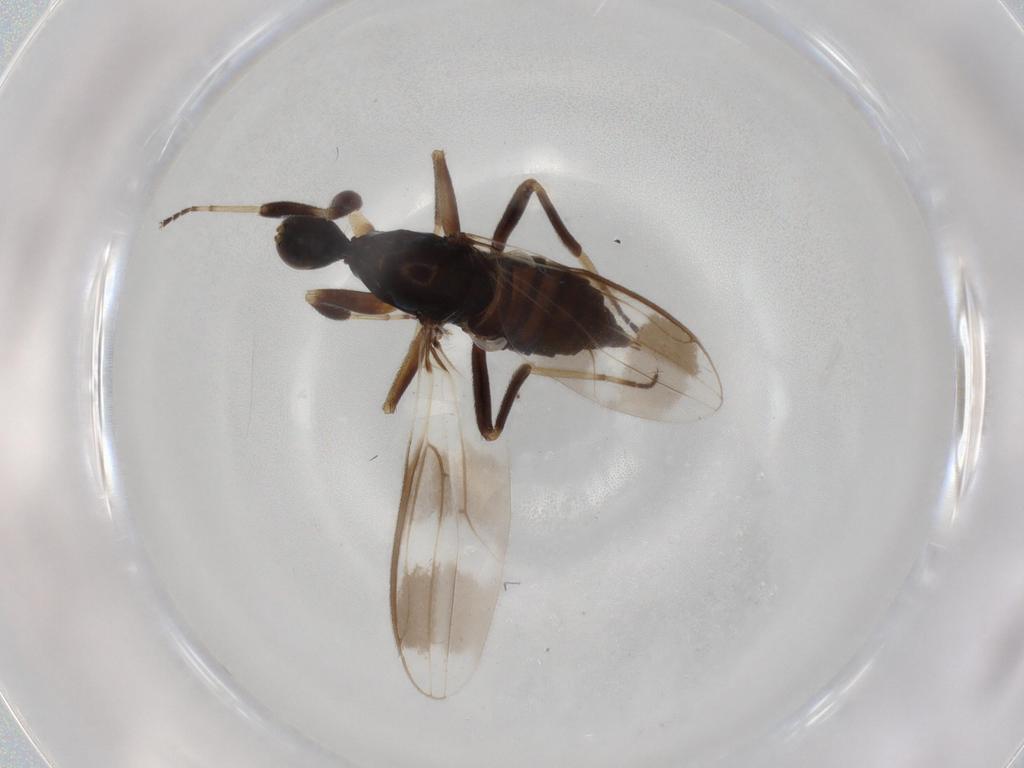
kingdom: Animalia
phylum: Arthropoda
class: Insecta
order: Diptera
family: Hybotidae
